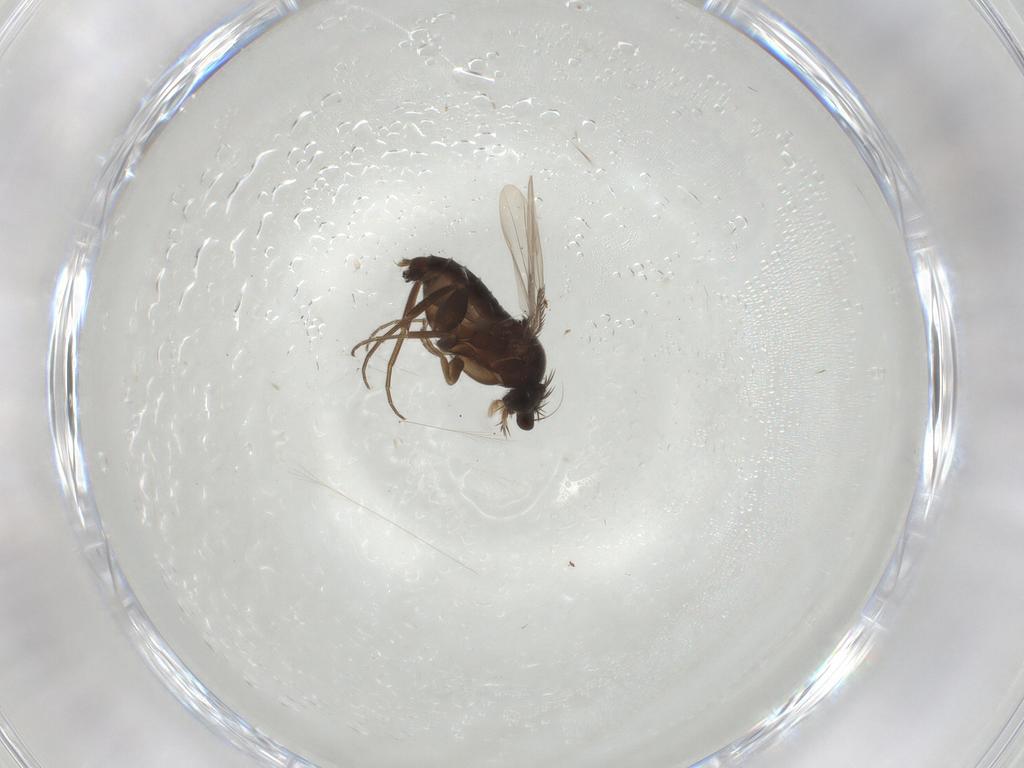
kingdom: Animalia
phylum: Arthropoda
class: Insecta
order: Diptera
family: Phoridae
